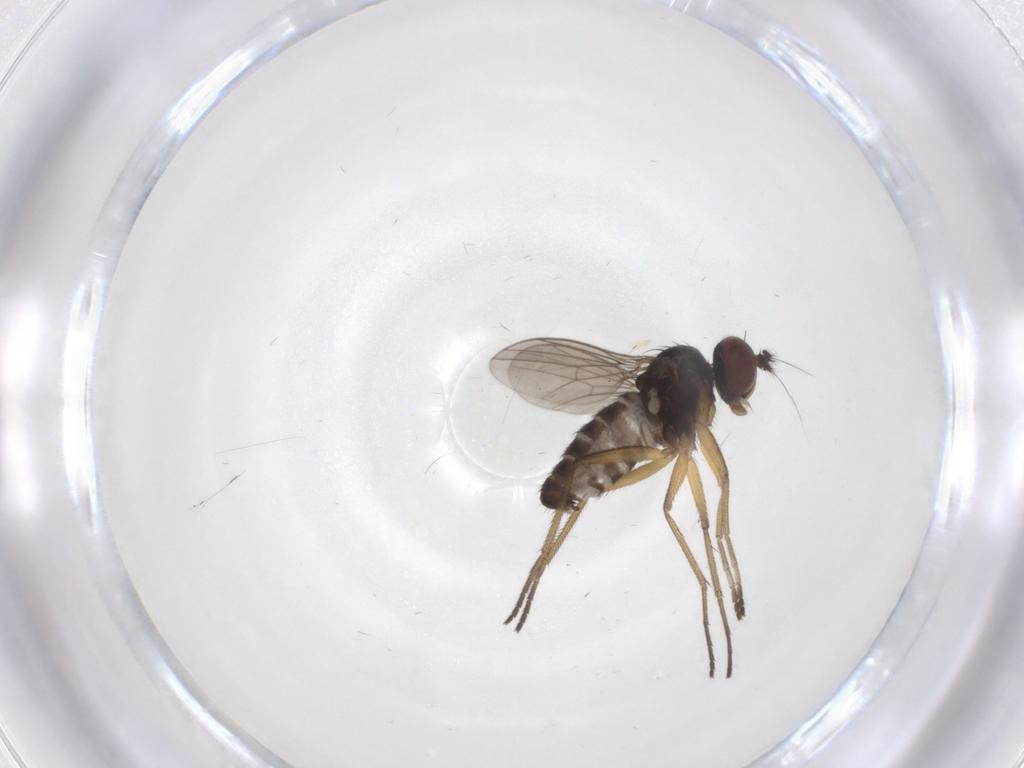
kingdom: Animalia
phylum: Arthropoda
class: Insecta
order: Diptera
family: Dolichopodidae
